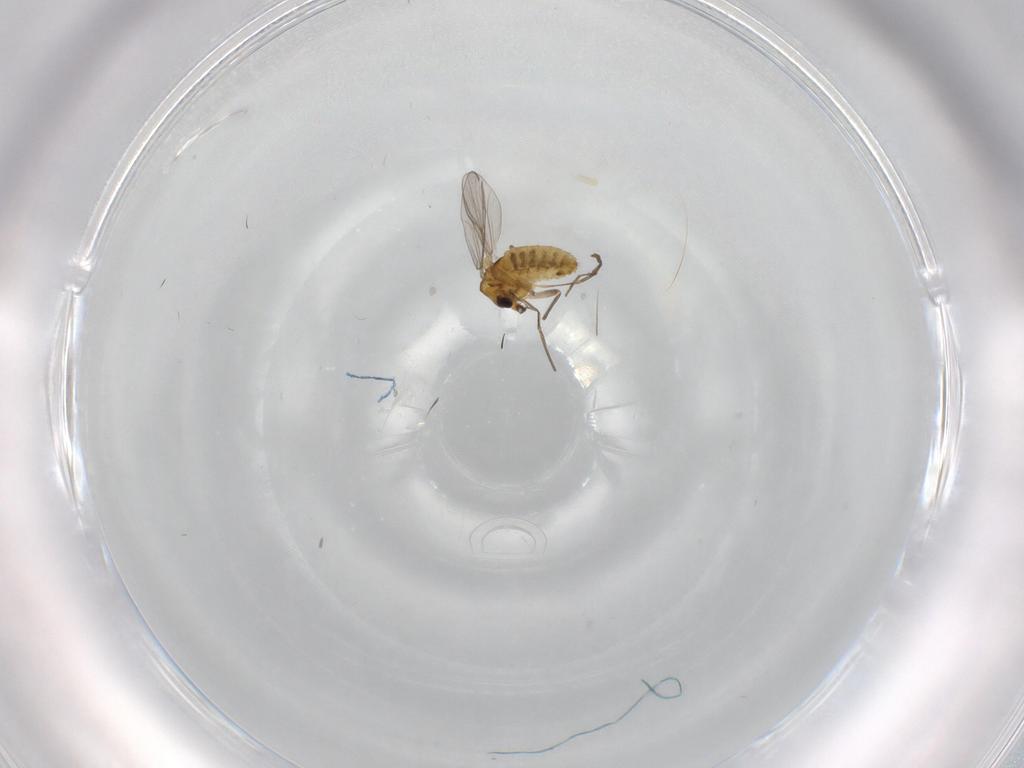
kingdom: Animalia
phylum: Arthropoda
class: Insecta
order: Diptera
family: Chironomidae
